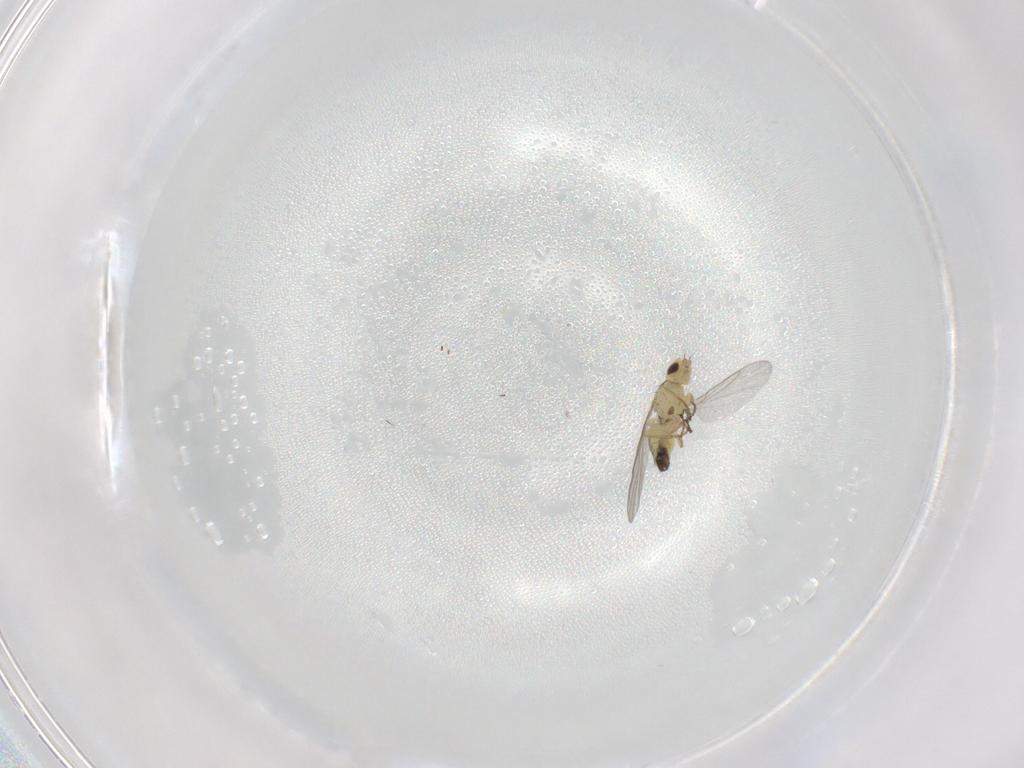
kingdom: Animalia
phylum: Arthropoda
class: Insecta
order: Diptera
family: Agromyzidae
